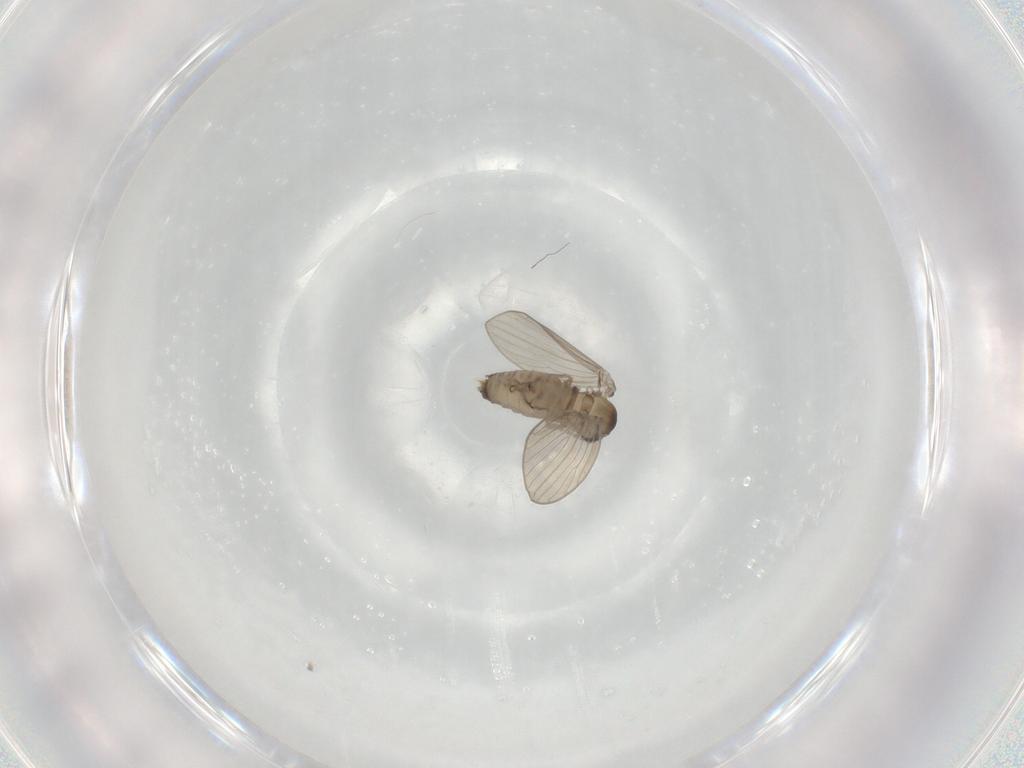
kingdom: Animalia
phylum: Arthropoda
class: Insecta
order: Diptera
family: Psychodidae
